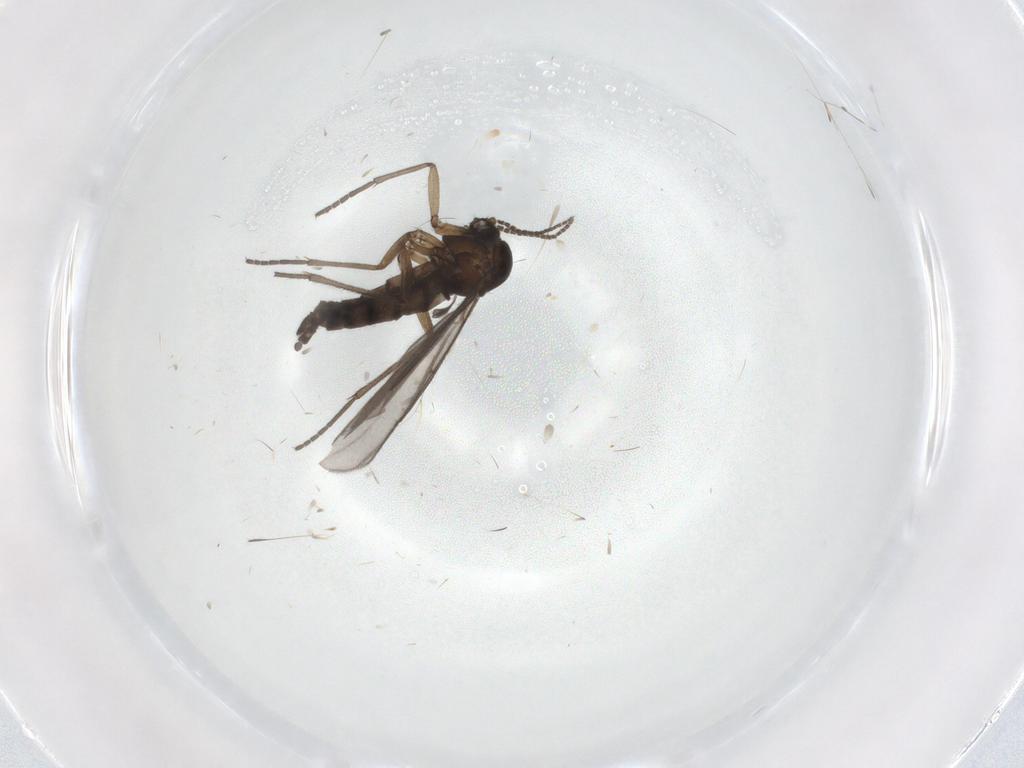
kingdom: Animalia
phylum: Arthropoda
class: Insecta
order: Diptera
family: Sciaridae
